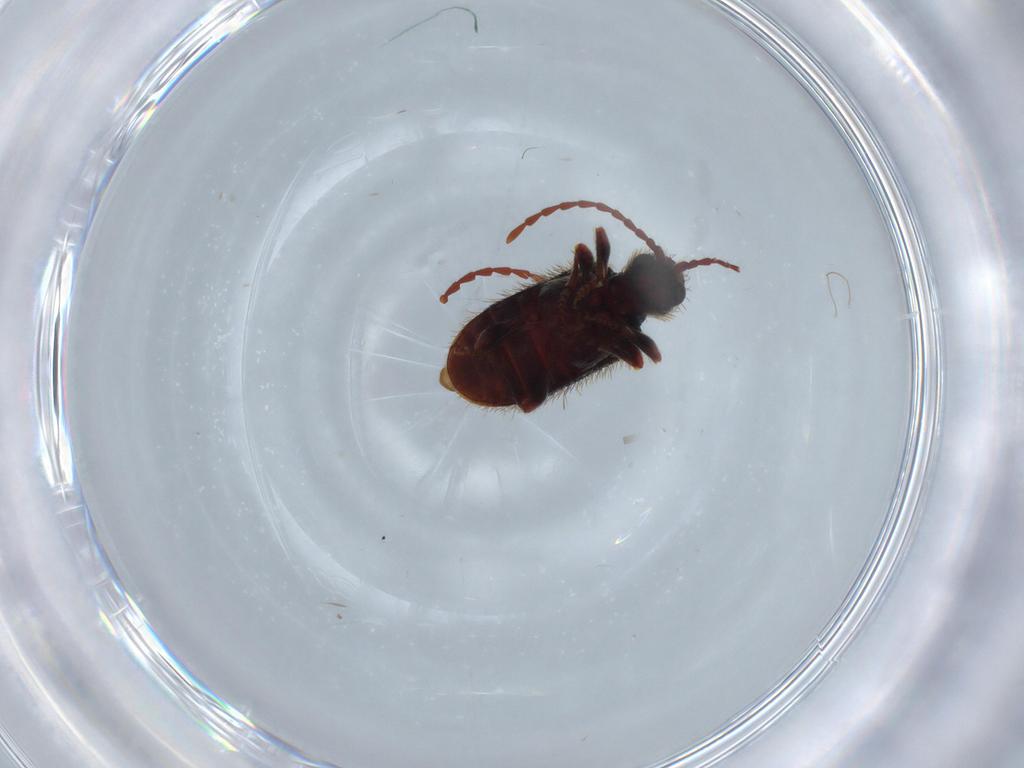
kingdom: Animalia
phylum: Arthropoda
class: Insecta
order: Coleoptera
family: Ptinidae
